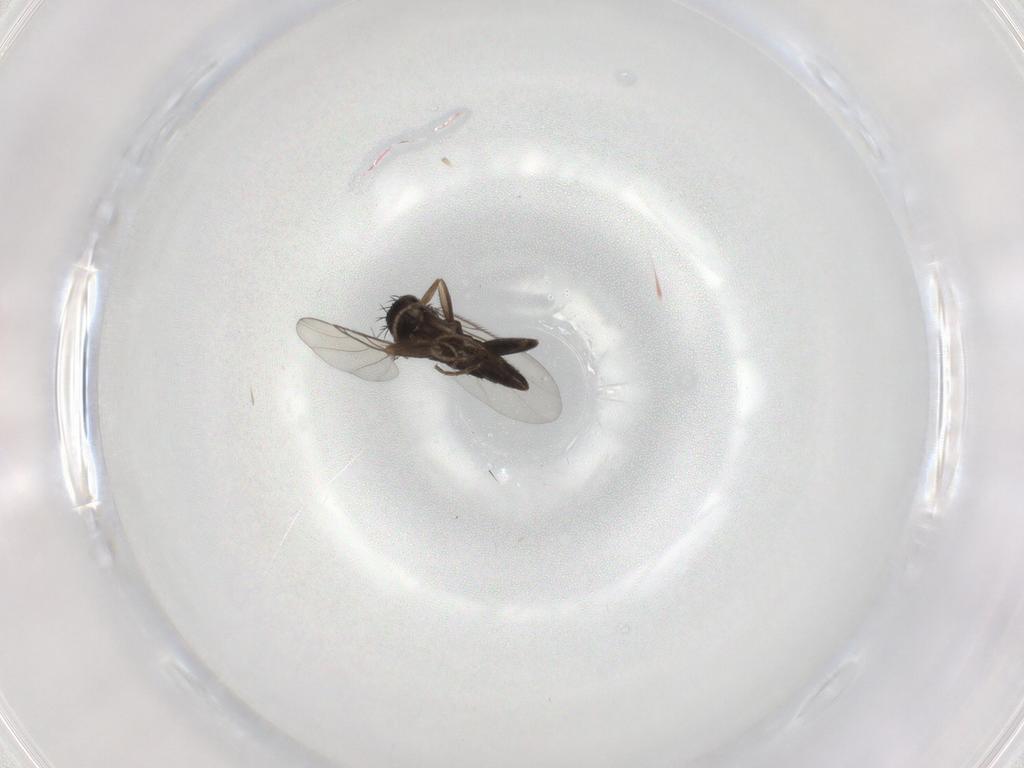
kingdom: Animalia
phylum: Arthropoda
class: Insecta
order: Diptera
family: Phoridae
